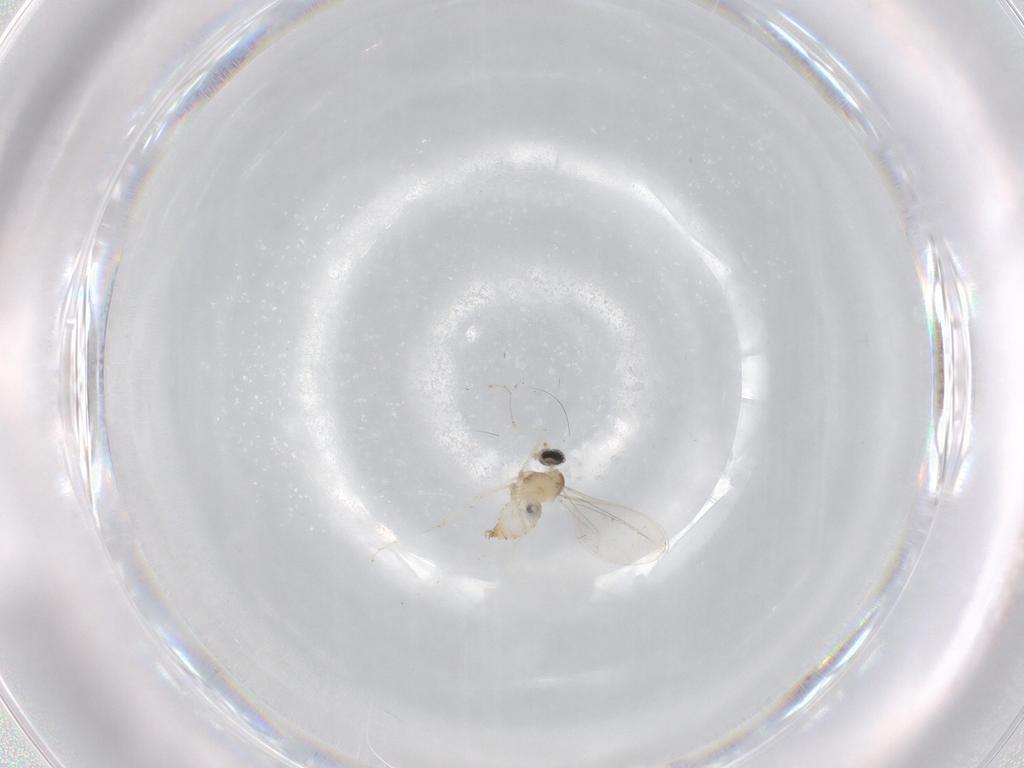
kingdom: Animalia
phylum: Arthropoda
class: Insecta
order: Diptera
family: Cecidomyiidae
